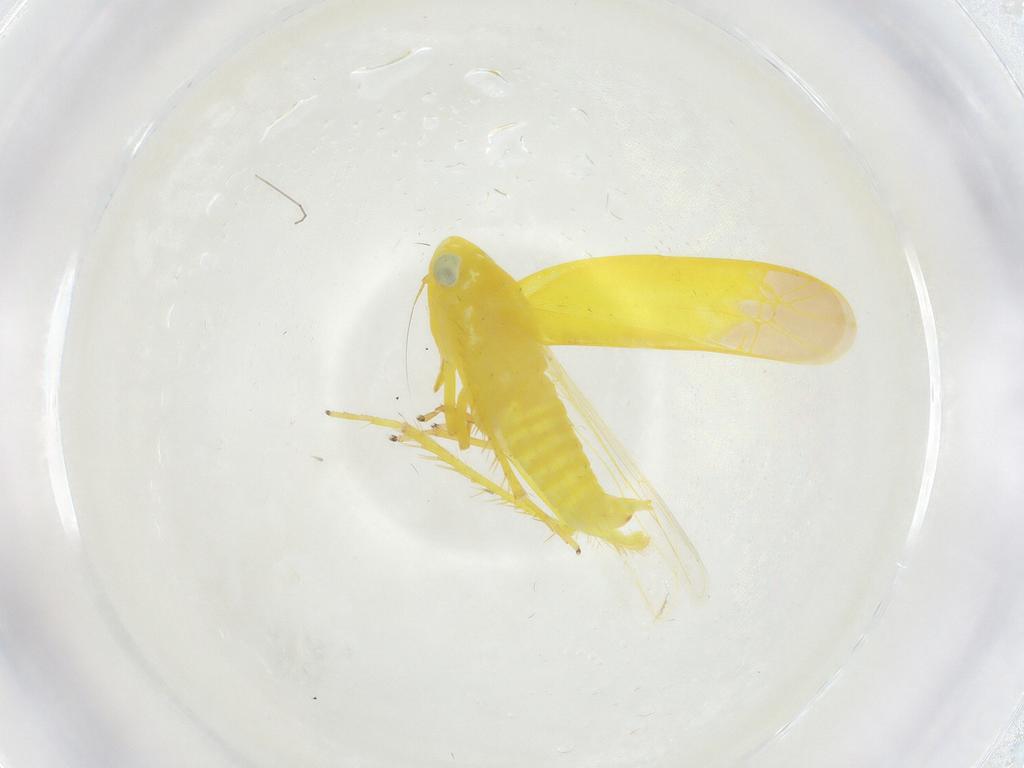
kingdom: Animalia
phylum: Arthropoda
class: Insecta
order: Hemiptera
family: Cicadellidae
